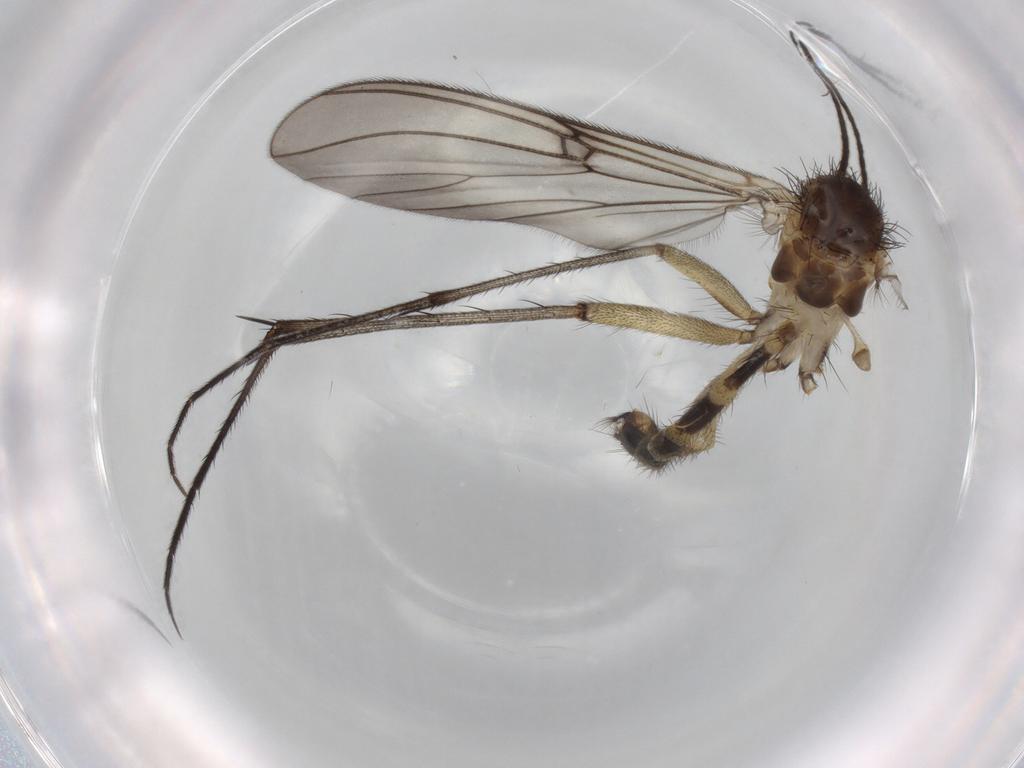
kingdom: Animalia
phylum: Arthropoda
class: Insecta
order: Diptera
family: Mycetophilidae
